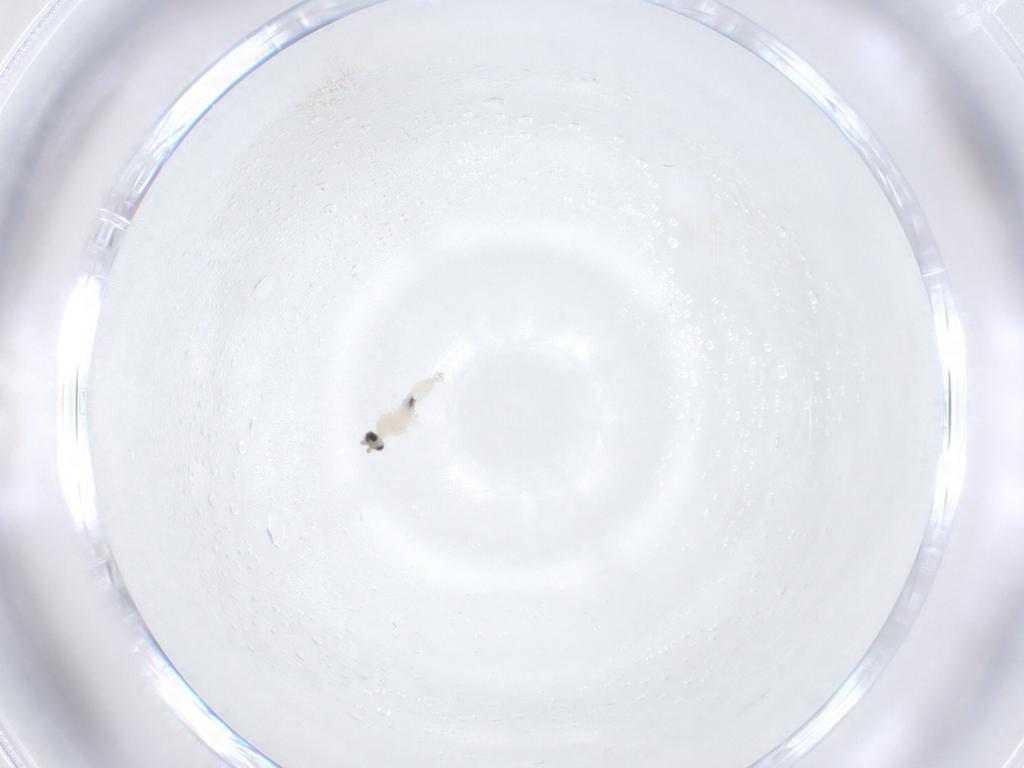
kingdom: Animalia
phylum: Arthropoda
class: Insecta
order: Diptera
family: Cecidomyiidae
